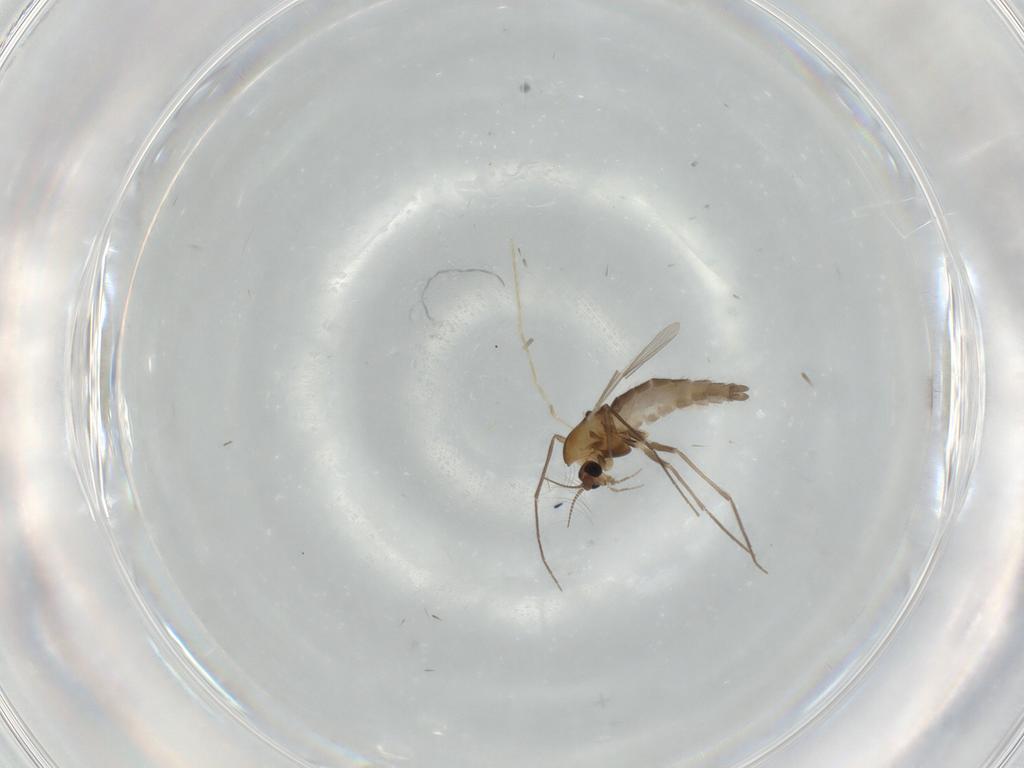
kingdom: Animalia
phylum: Arthropoda
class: Insecta
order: Diptera
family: Chironomidae
